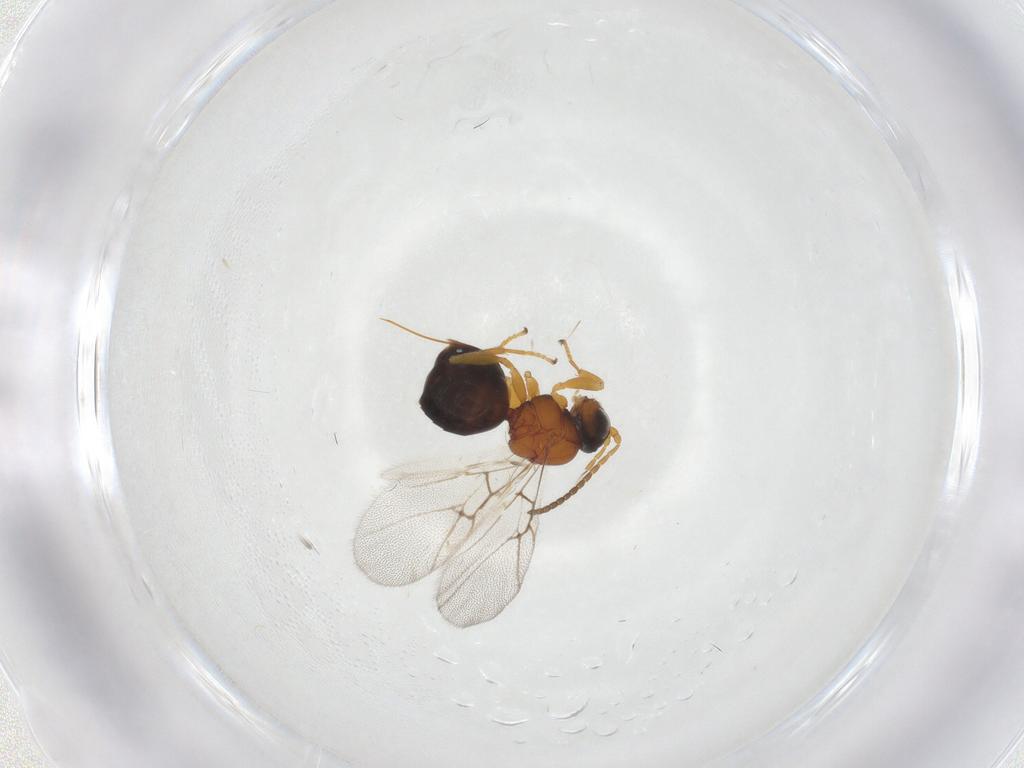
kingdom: Animalia
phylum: Arthropoda
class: Insecta
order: Hymenoptera
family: Cynipidae
